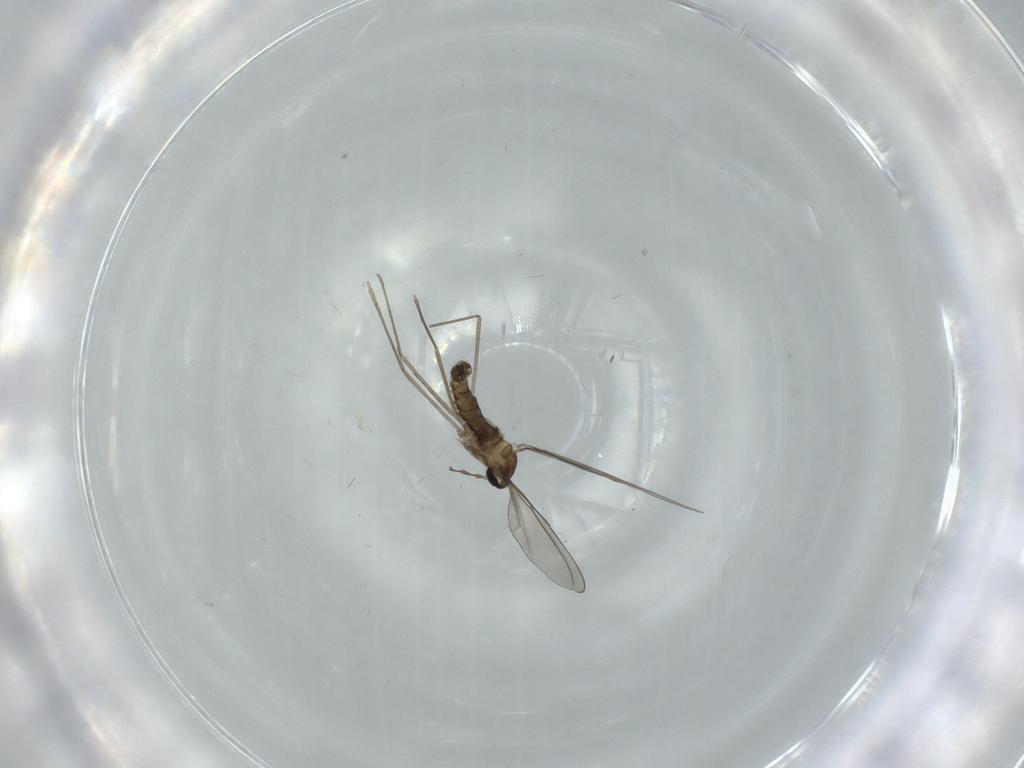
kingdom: Animalia
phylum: Arthropoda
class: Insecta
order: Diptera
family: Cecidomyiidae
